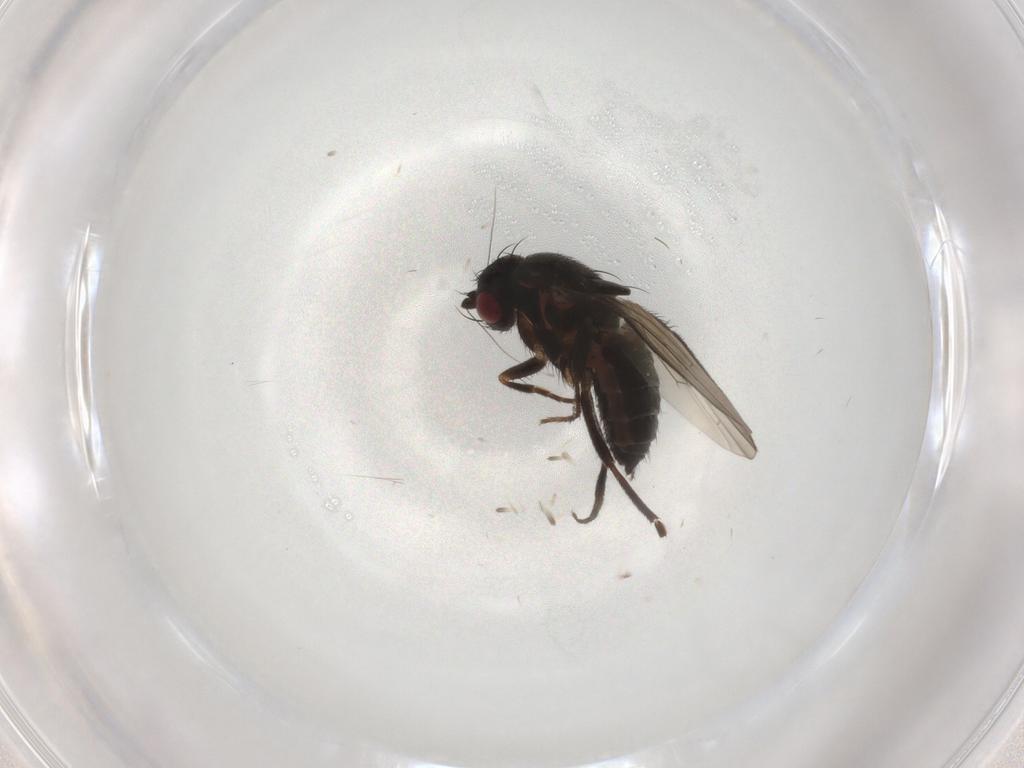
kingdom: Animalia
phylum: Arthropoda
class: Insecta
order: Diptera
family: Sphaeroceridae
